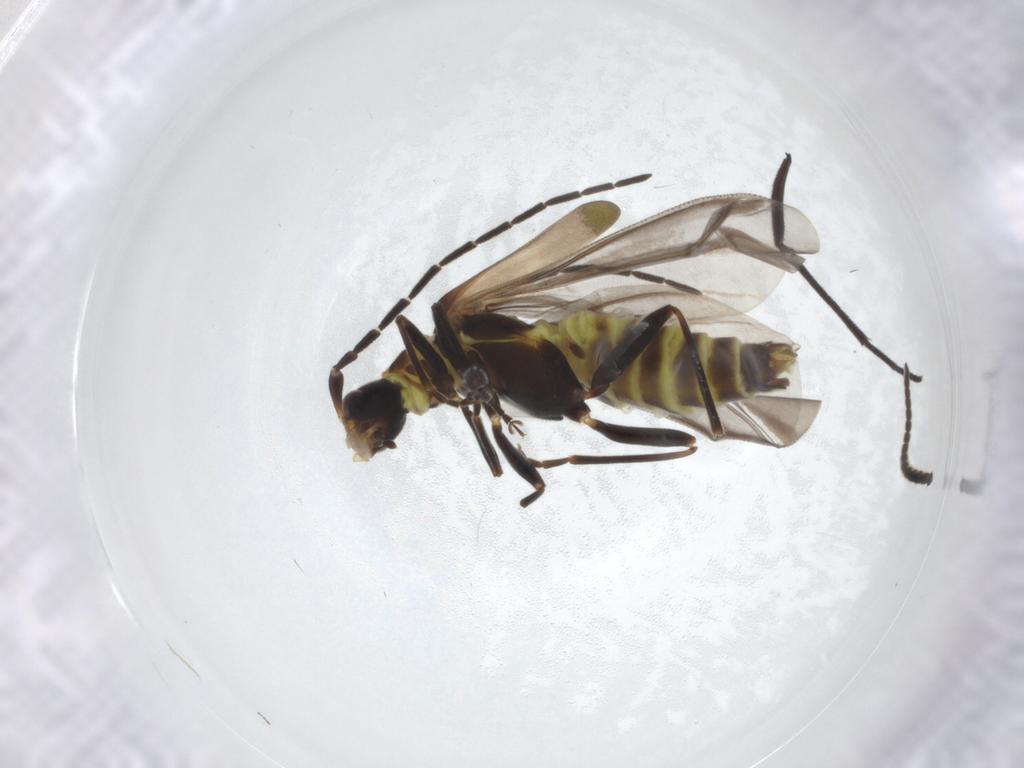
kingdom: Animalia
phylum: Arthropoda
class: Insecta
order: Coleoptera
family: Cantharidae
